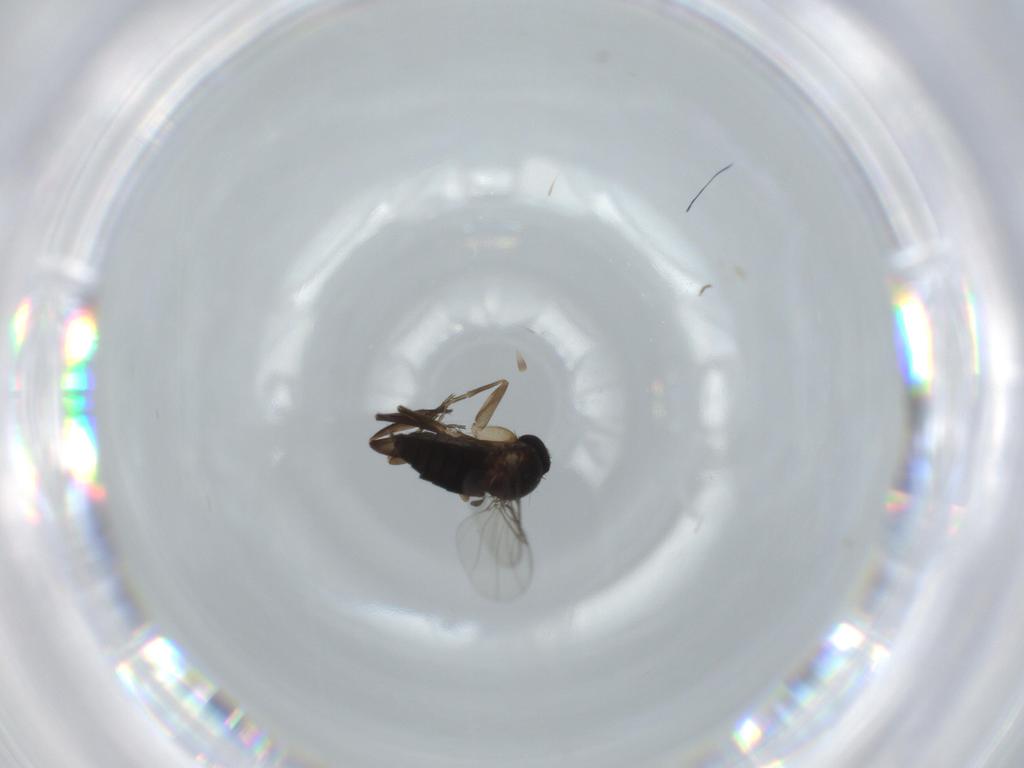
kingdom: Animalia
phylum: Arthropoda
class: Insecta
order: Diptera
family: Phoridae
